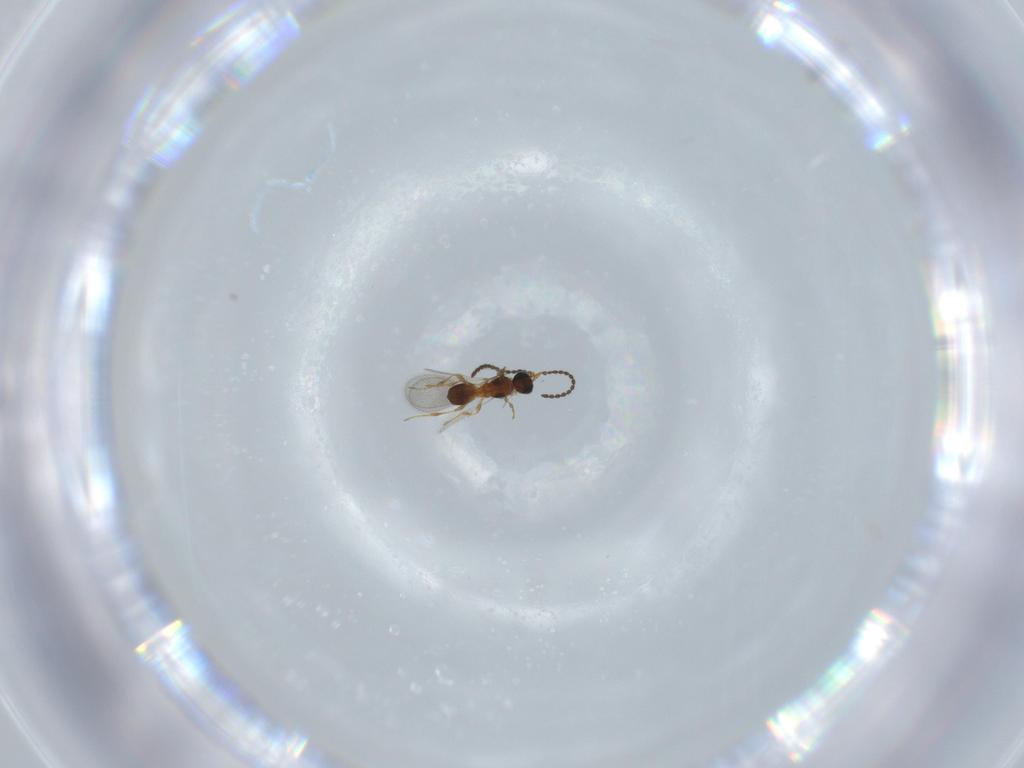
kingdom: Animalia
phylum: Arthropoda
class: Insecta
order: Hymenoptera
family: Diapriidae
